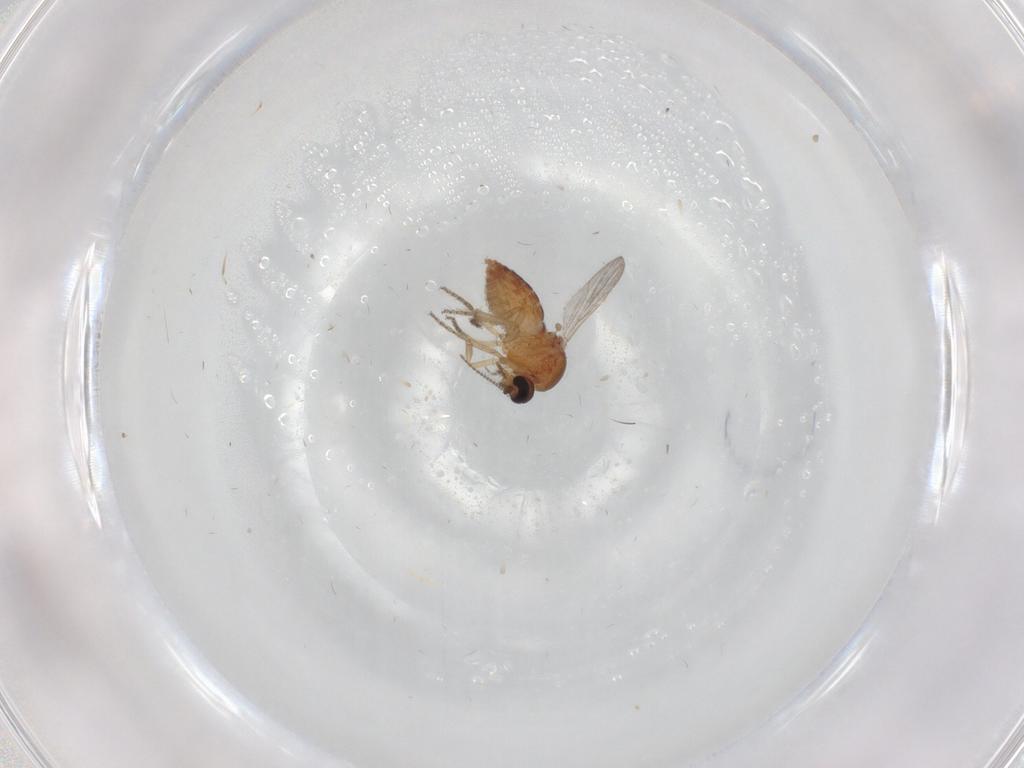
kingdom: Animalia
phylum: Arthropoda
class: Insecta
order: Diptera
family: Ceratopogonidae
